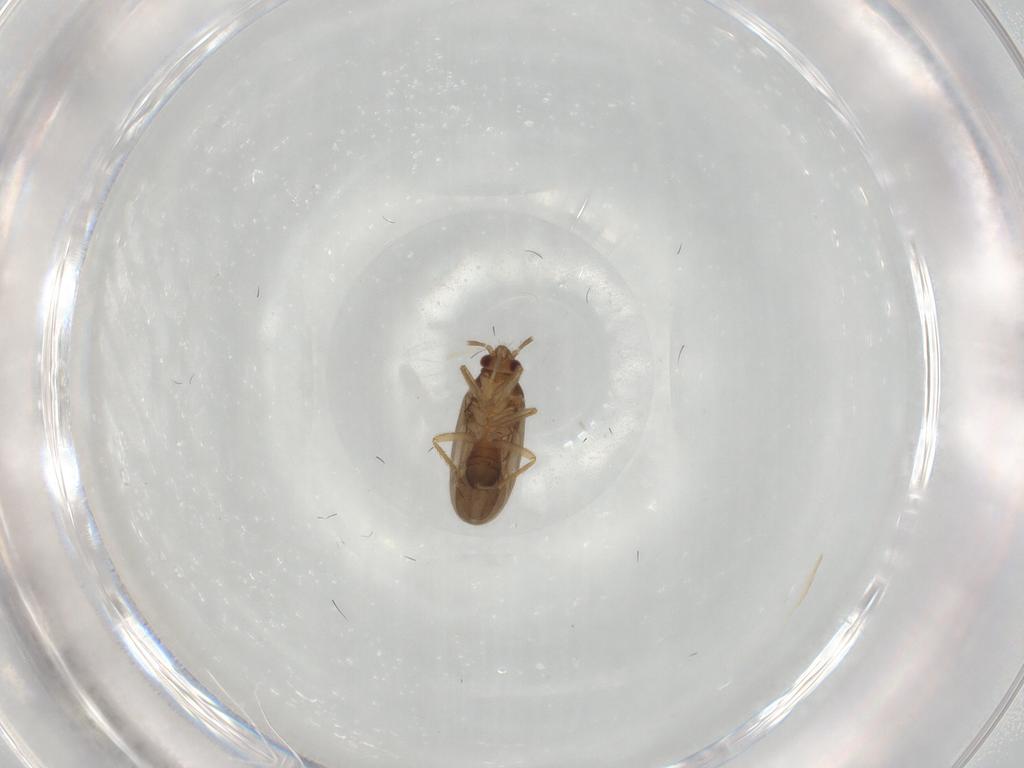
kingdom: Animalia
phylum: Arthropoda
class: Insecta
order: Hemiptera
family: Ceratocombidae
